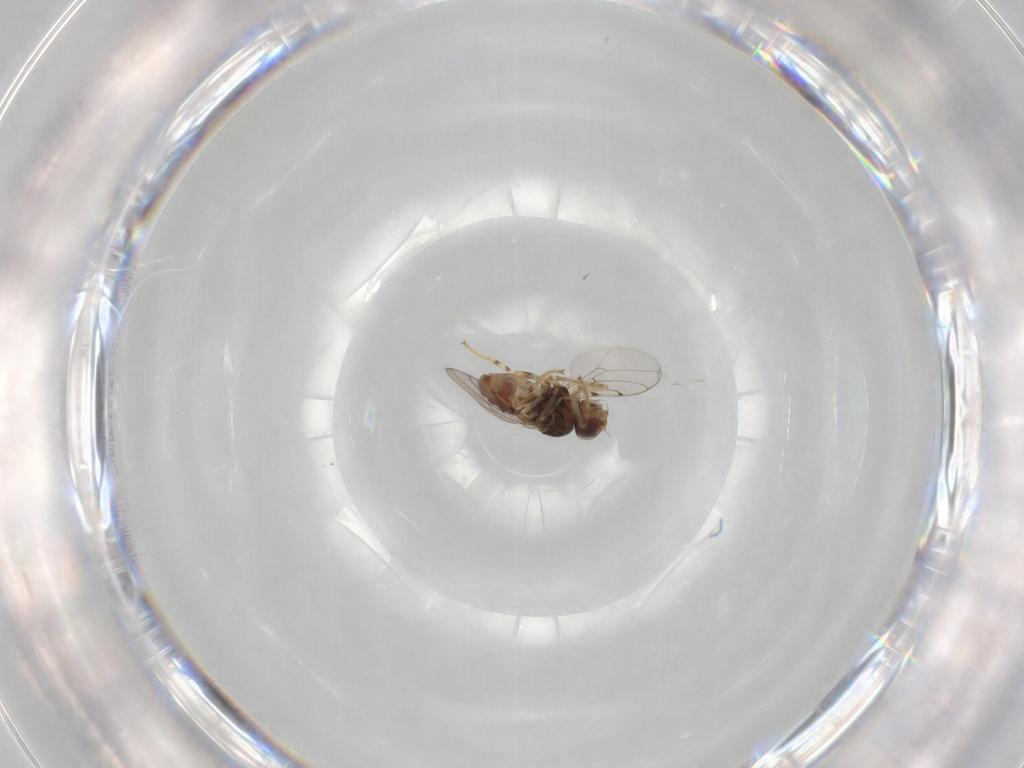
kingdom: Animalia
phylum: Arthropoda
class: Insecta
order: Diptera
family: Chloropidae
